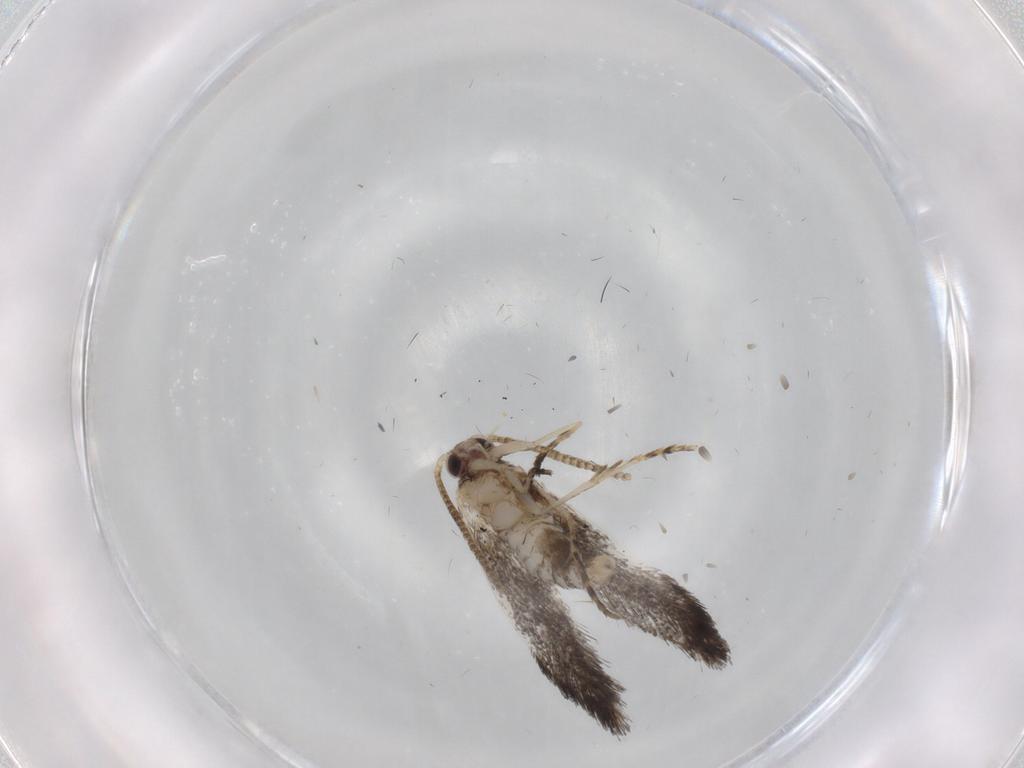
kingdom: Animalia
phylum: Arthropoda
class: Insecta
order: Lepidoptera
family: Tineidae
